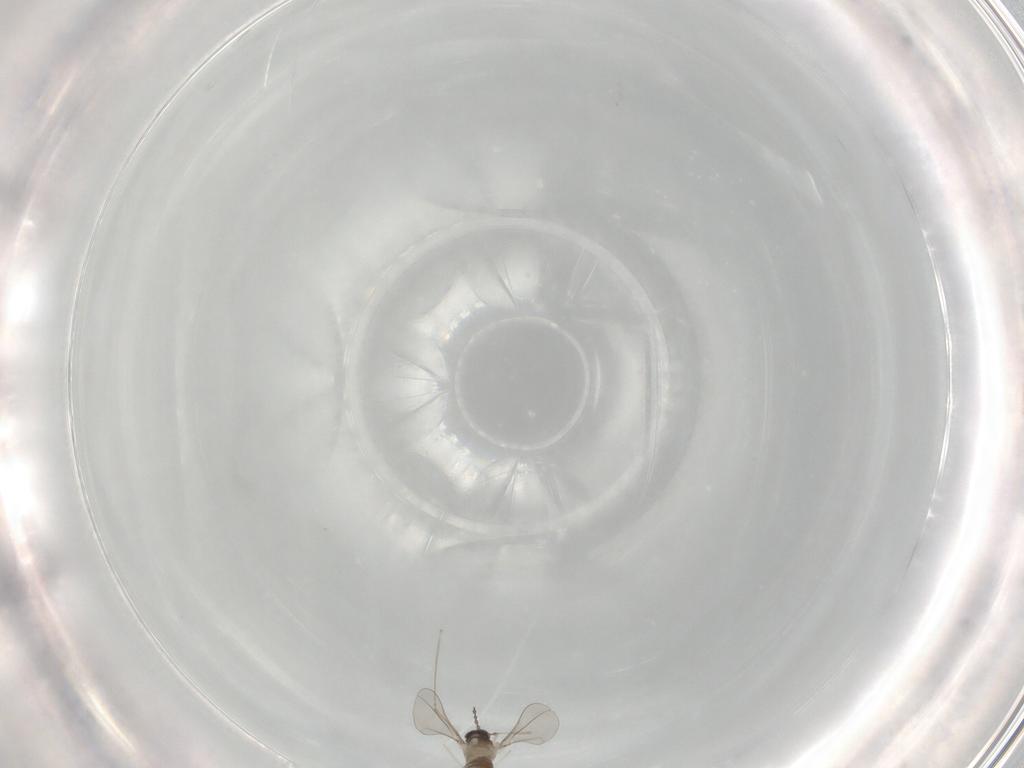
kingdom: Animalia
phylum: Arthropoda
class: Insecta
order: Diptera
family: Cecidomyiidae
